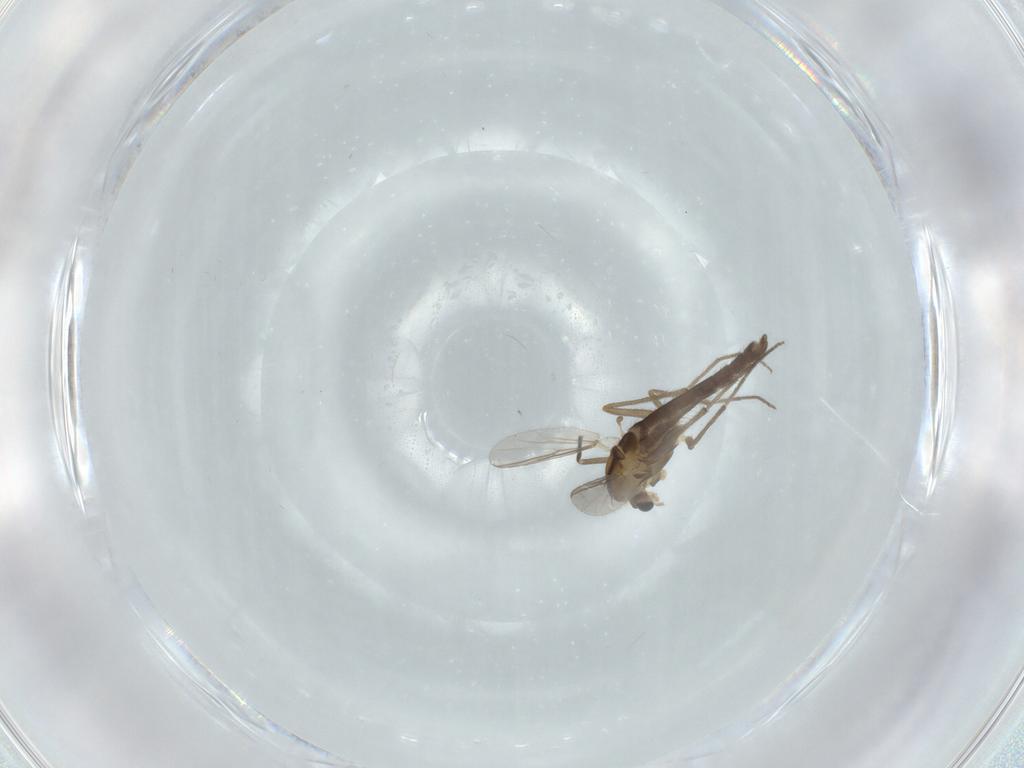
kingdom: Animalia
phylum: Arthropoda
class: Insecta
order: Diptera
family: Chironomidae
